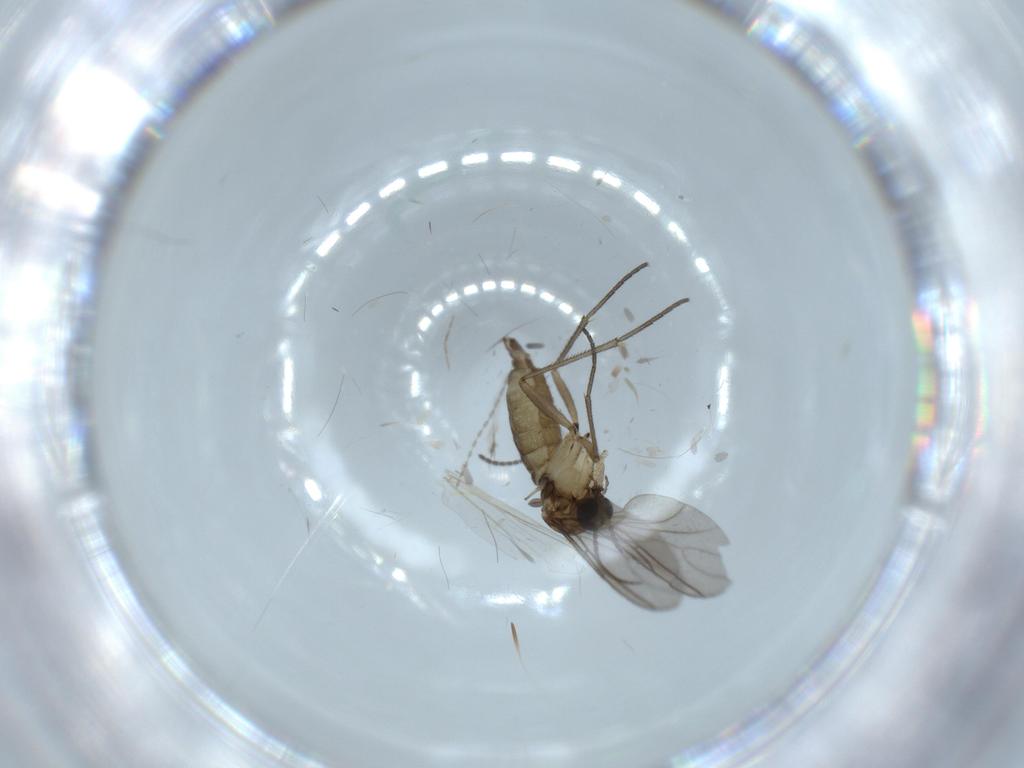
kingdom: Animalia
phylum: Arthropoda
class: Insecta
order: Diptera
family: Sciaridae
